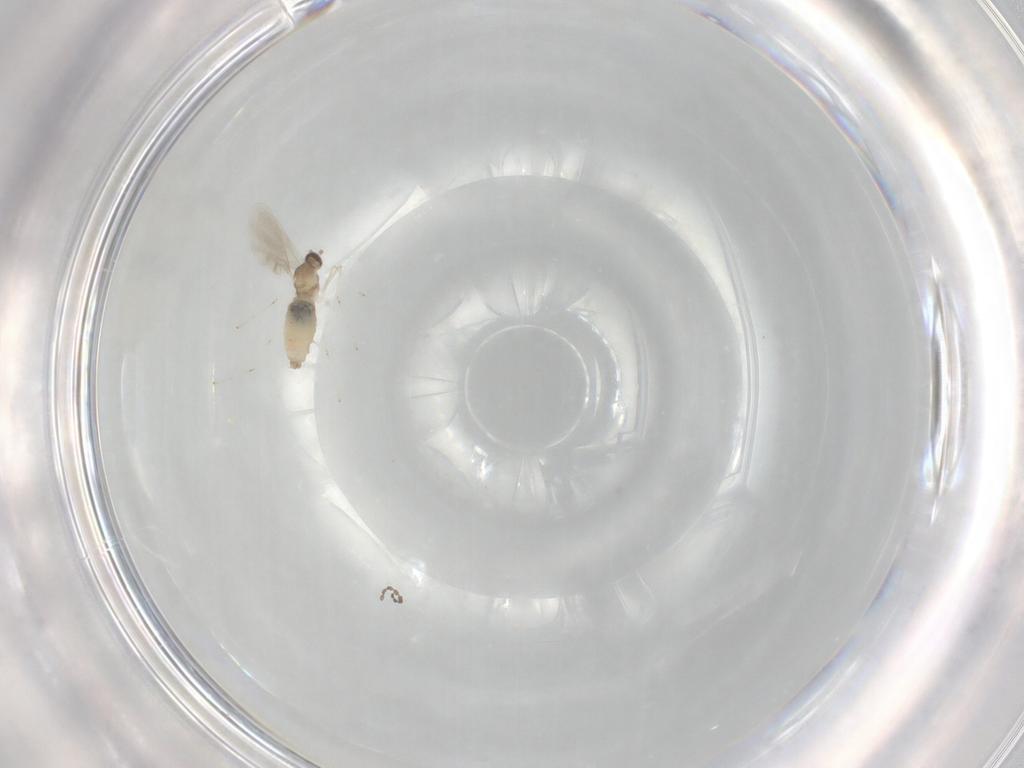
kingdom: Animalia
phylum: Arthropoda
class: Insecta
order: Diptera
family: Cecidomyiidae
